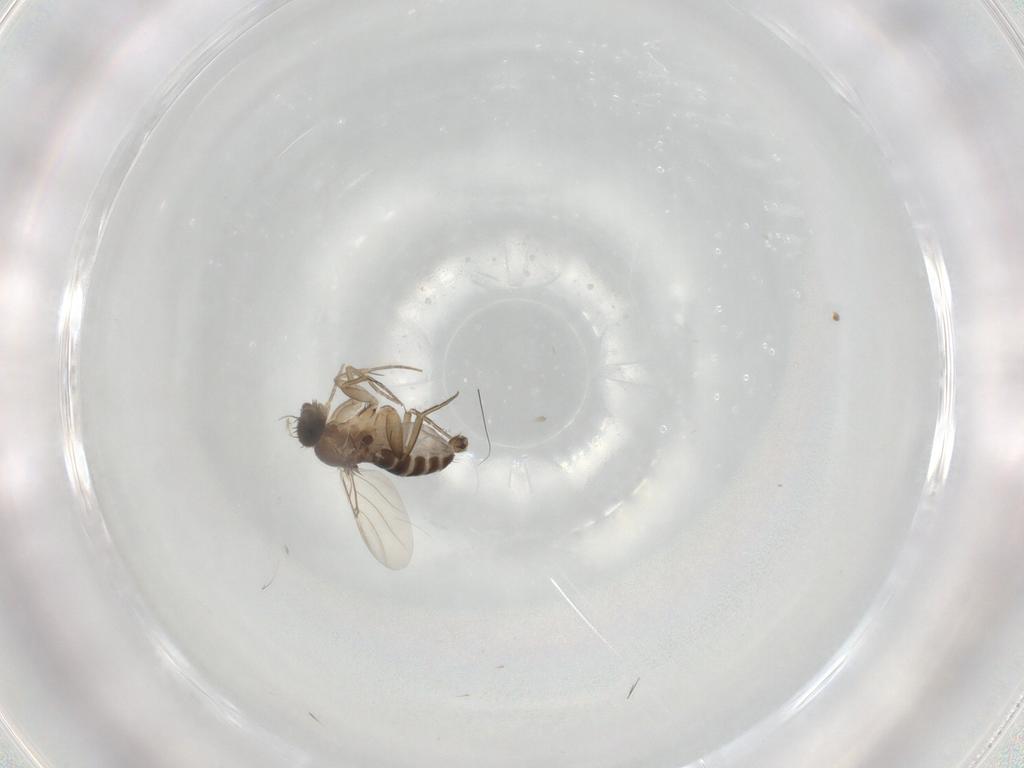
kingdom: Animalia
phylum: Arthropoda
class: Insecta
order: Diptera
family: Phoridae
